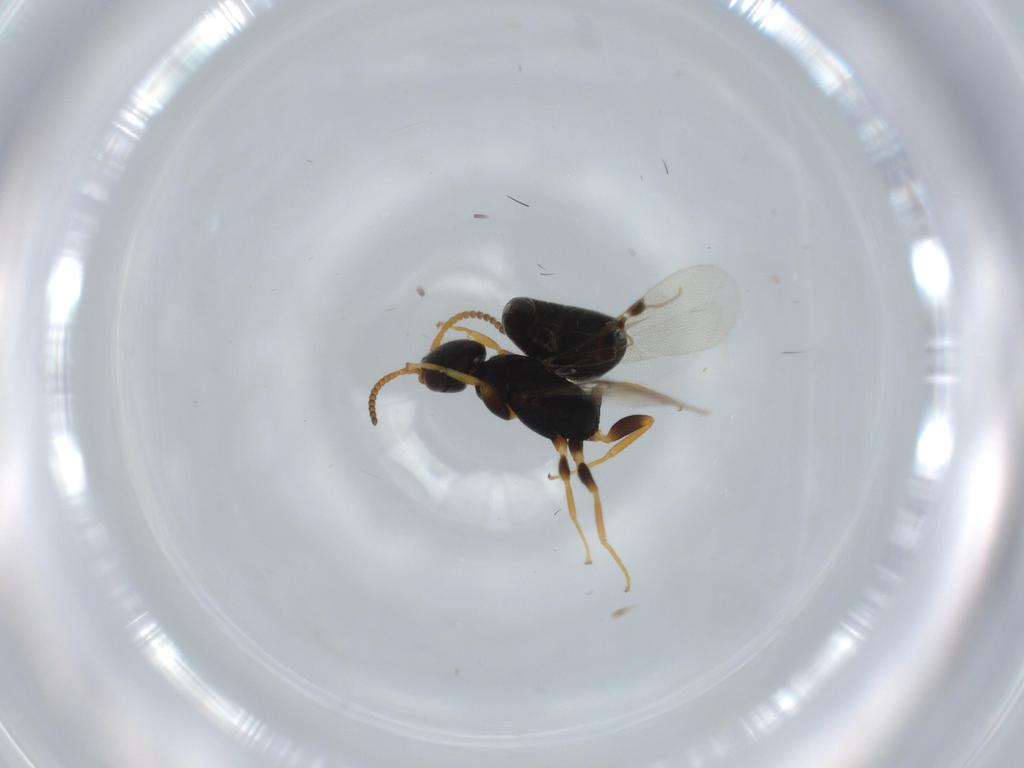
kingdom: Animalia
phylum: Arthropoda
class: Insecta
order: Hymenoptera
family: Bethylidae
